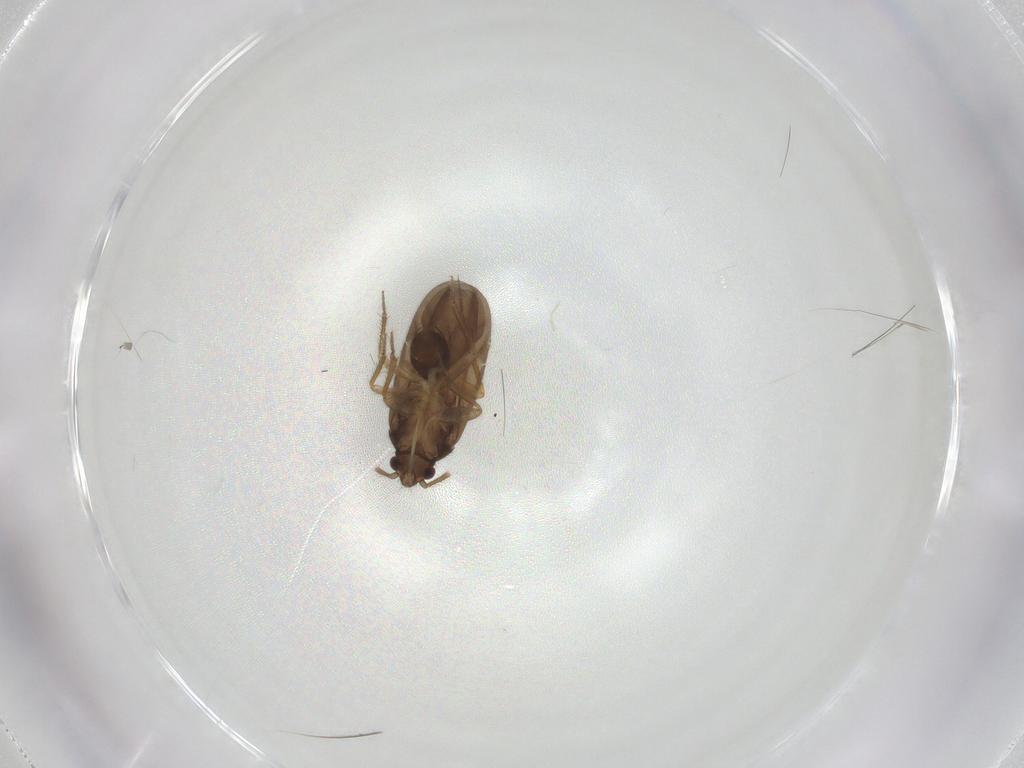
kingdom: Animalia
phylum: Arthropoda
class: Insecta
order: Hemiptera
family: Ceratocombidae
